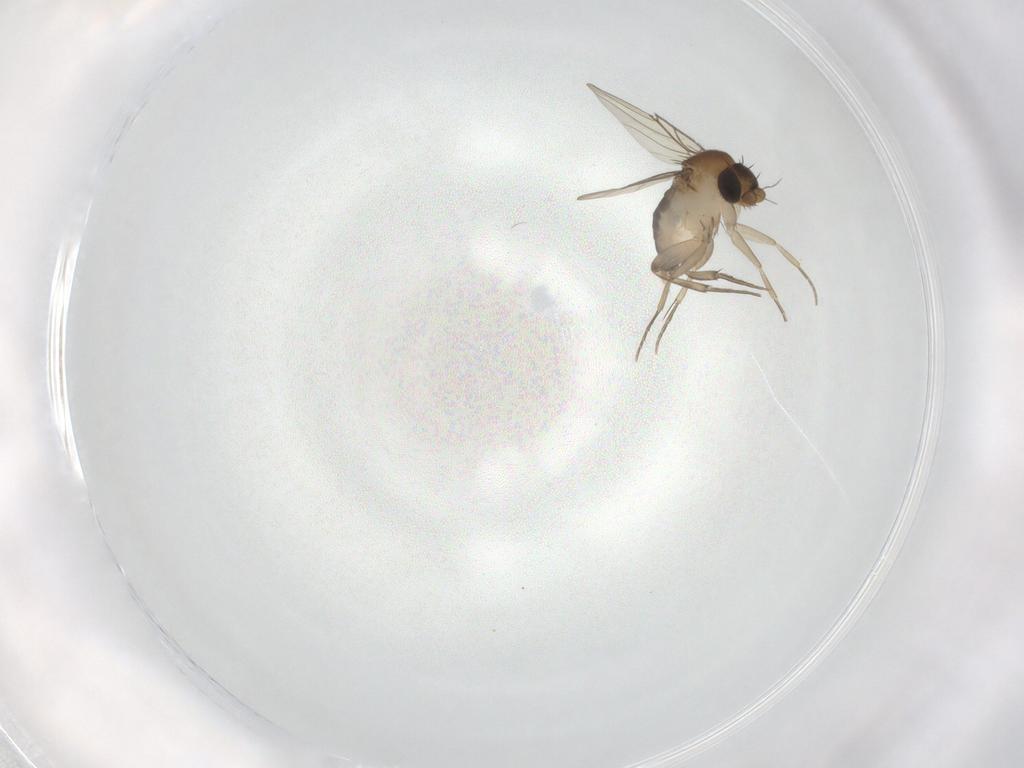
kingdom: Animalia
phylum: Arthropoda
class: Insecta
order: Diptera
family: Phoridae
